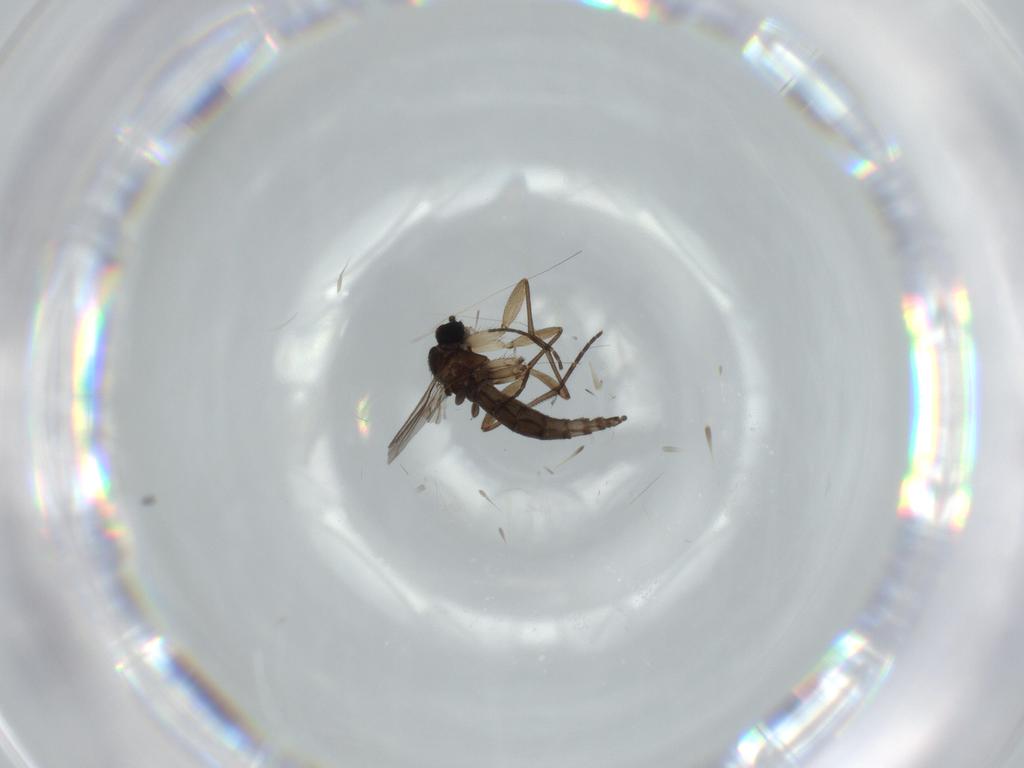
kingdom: Animalia
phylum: Arthropoda
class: Insecta
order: Diptera
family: Sciaridae
